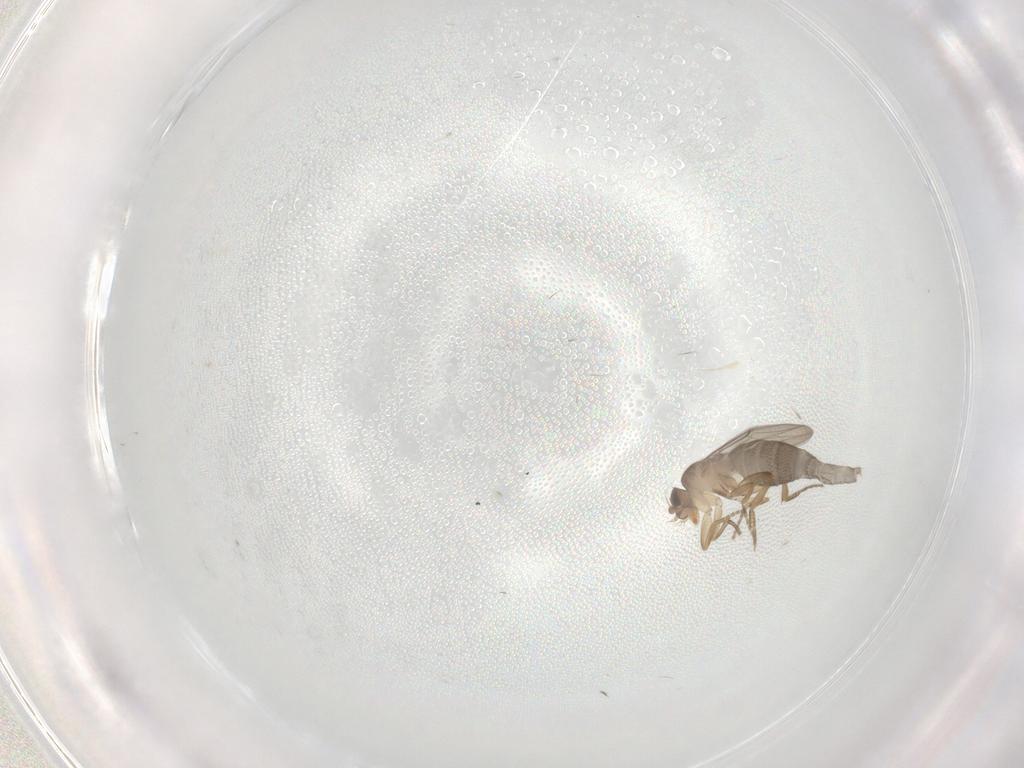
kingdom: Animalia
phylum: Arthropoda
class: Insecta
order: Diptera
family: Phoridae
